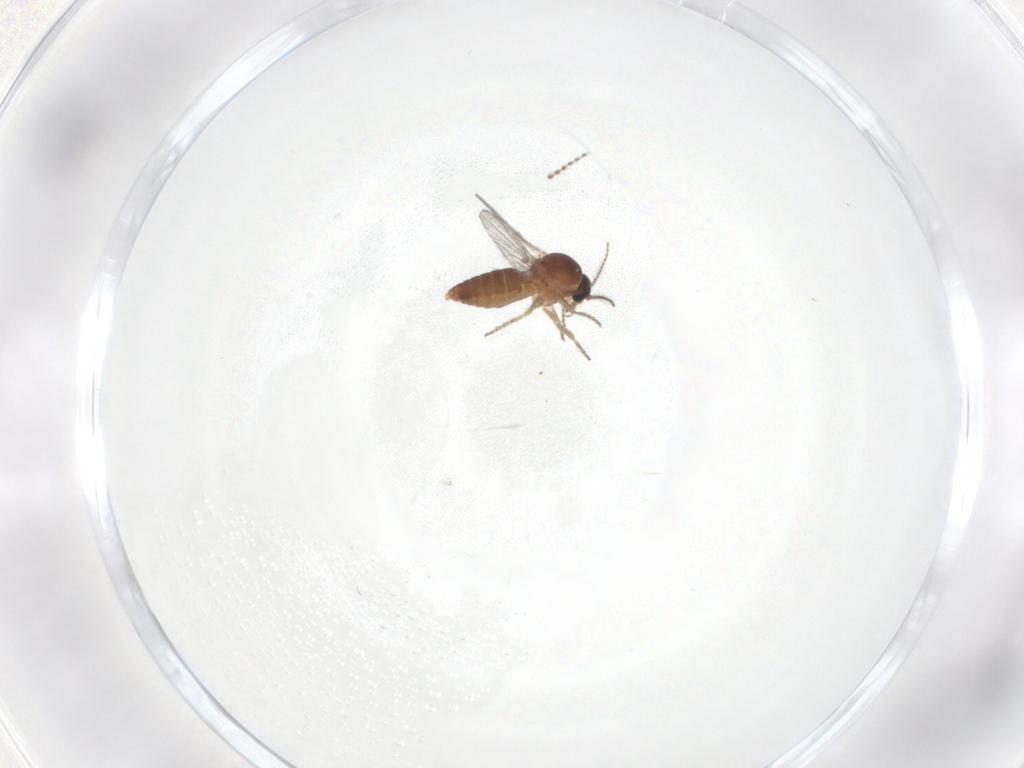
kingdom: Animalia
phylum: Arthropoda
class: Insecta
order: Diptera
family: Ceratopogonidae
